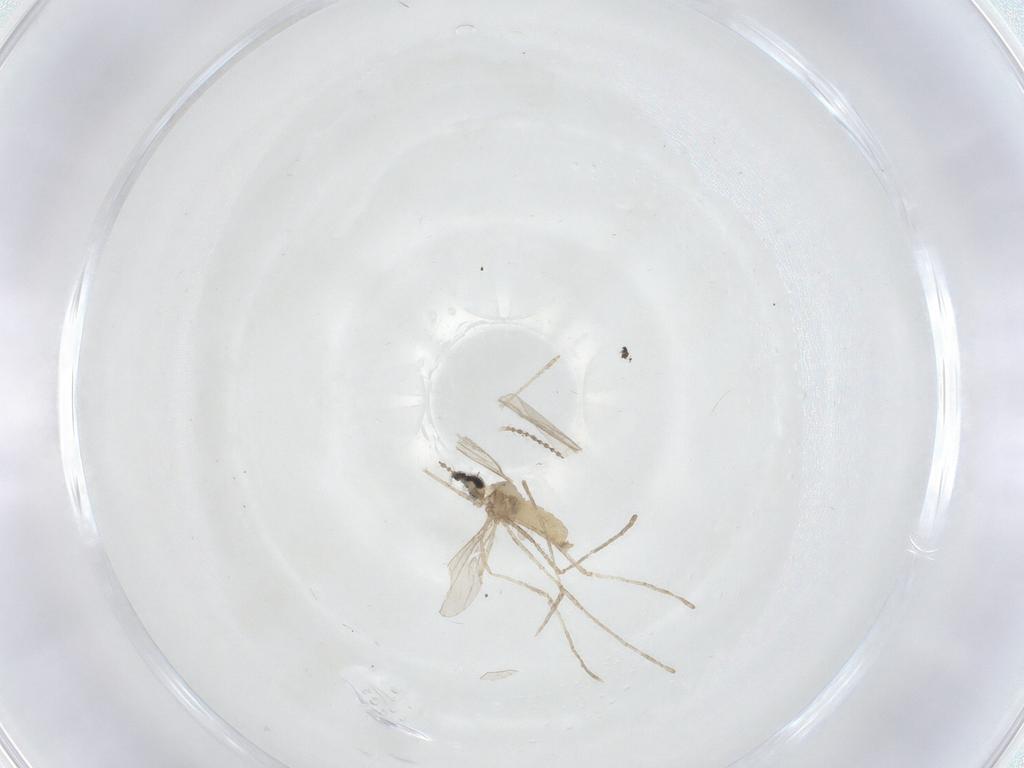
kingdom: Animalia
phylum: Arthropoda
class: Insecta
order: Diptera
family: Cecidomyiidae
